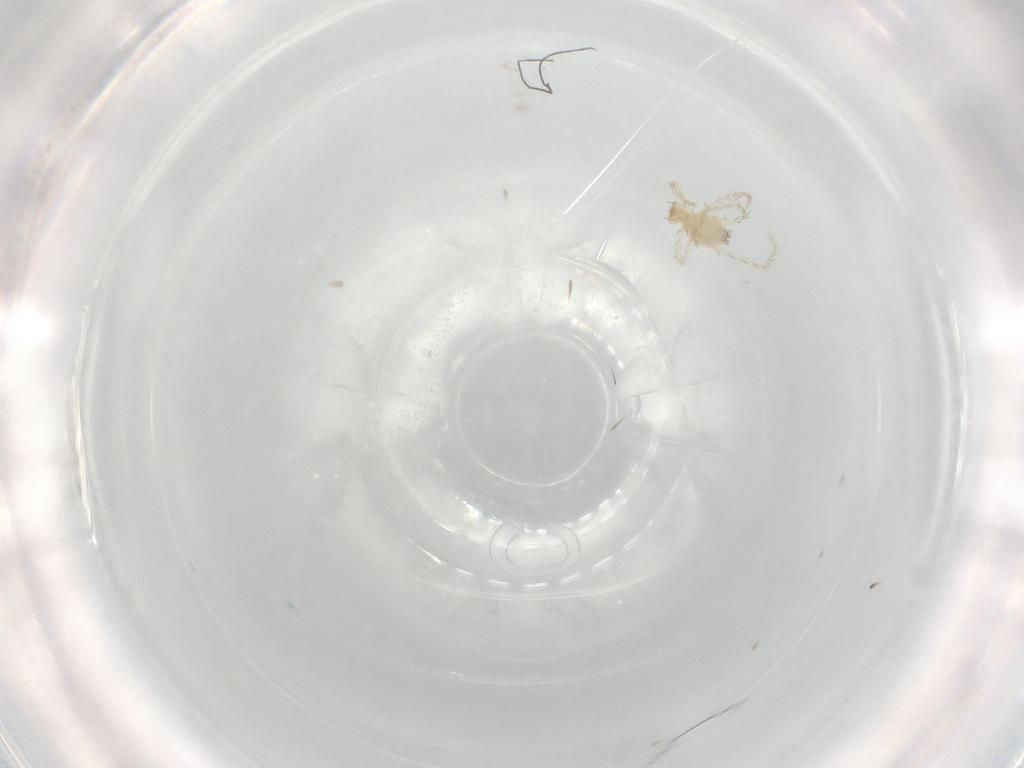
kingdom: Animalia
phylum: Arthropoda
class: Arachnida
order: Trombidiformes
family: Erythraeidae
